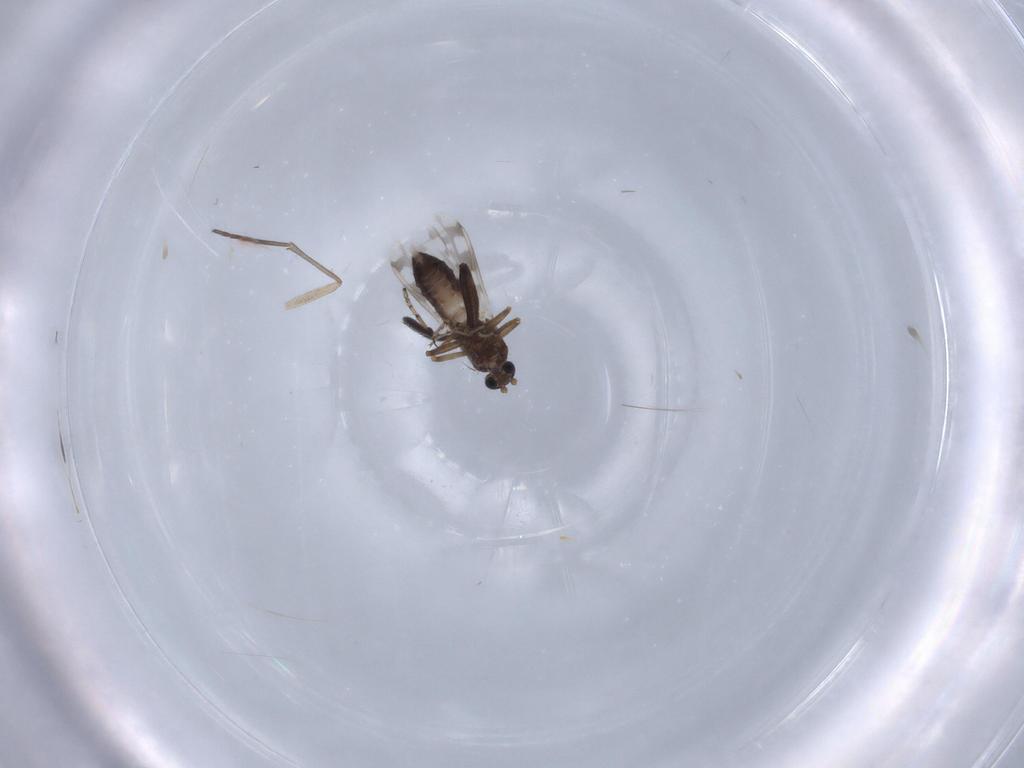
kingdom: Animalia
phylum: Arthropoda
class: Insecta
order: Diptera
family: Sciaridae
